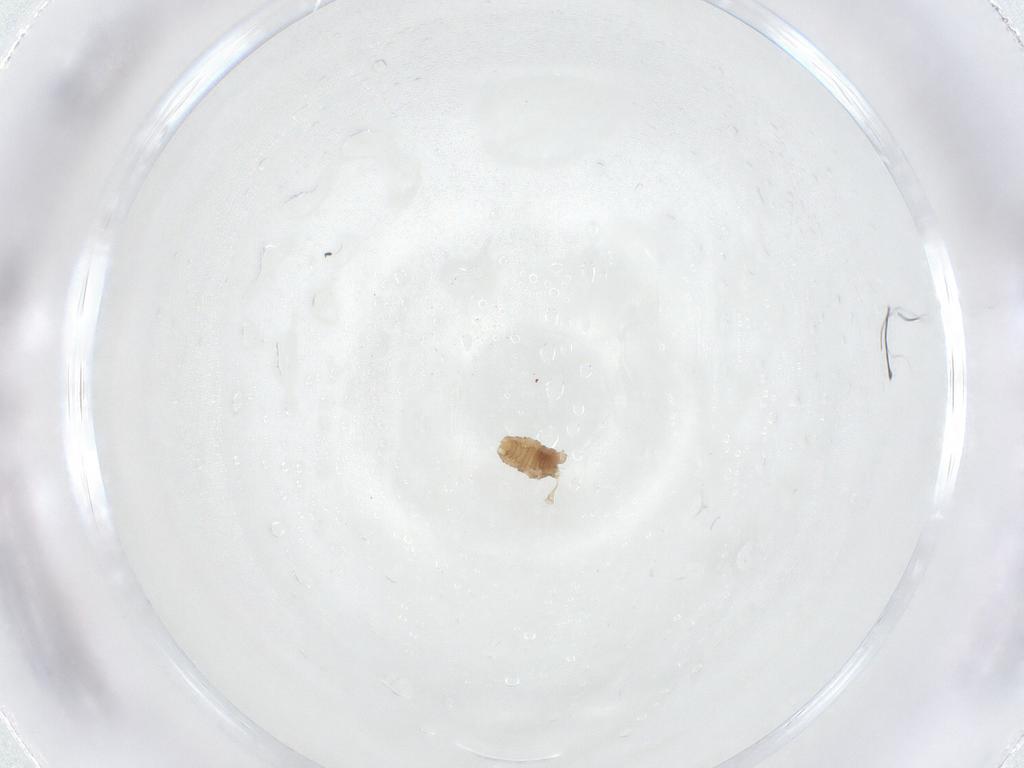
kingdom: Animalia
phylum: Arthropoda
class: Insecta
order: Diptera
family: Cecidomyiidae
